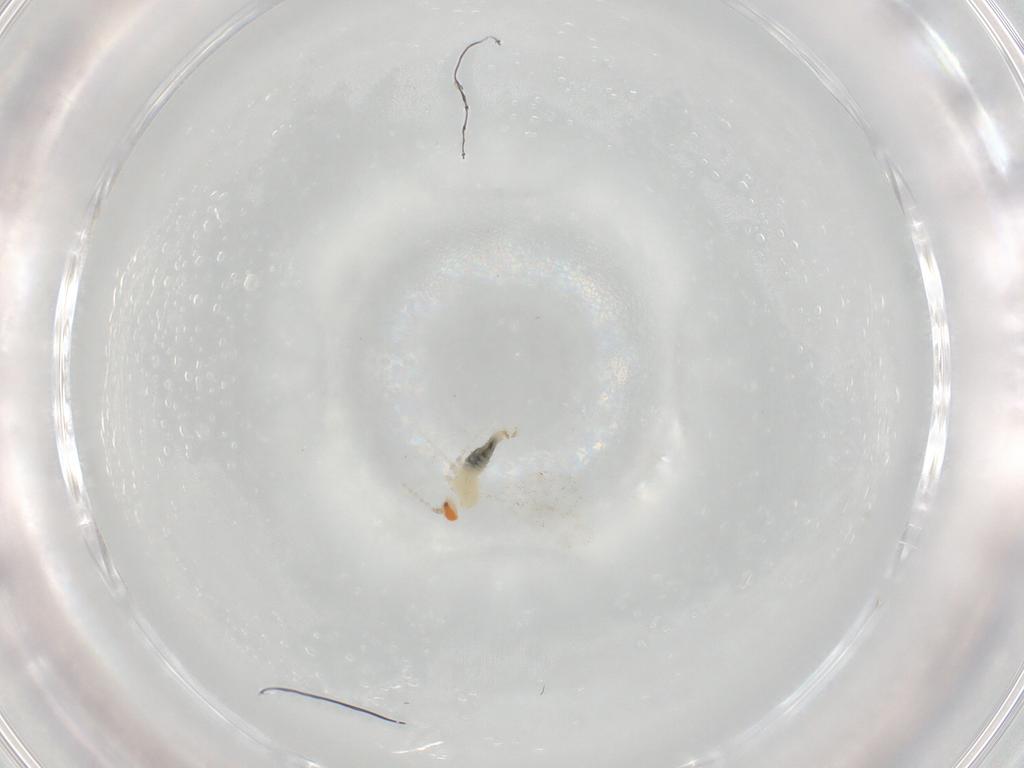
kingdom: Animalia
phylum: Arthropoda
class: Insecta
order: Diptera
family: Cecidomyiidae
